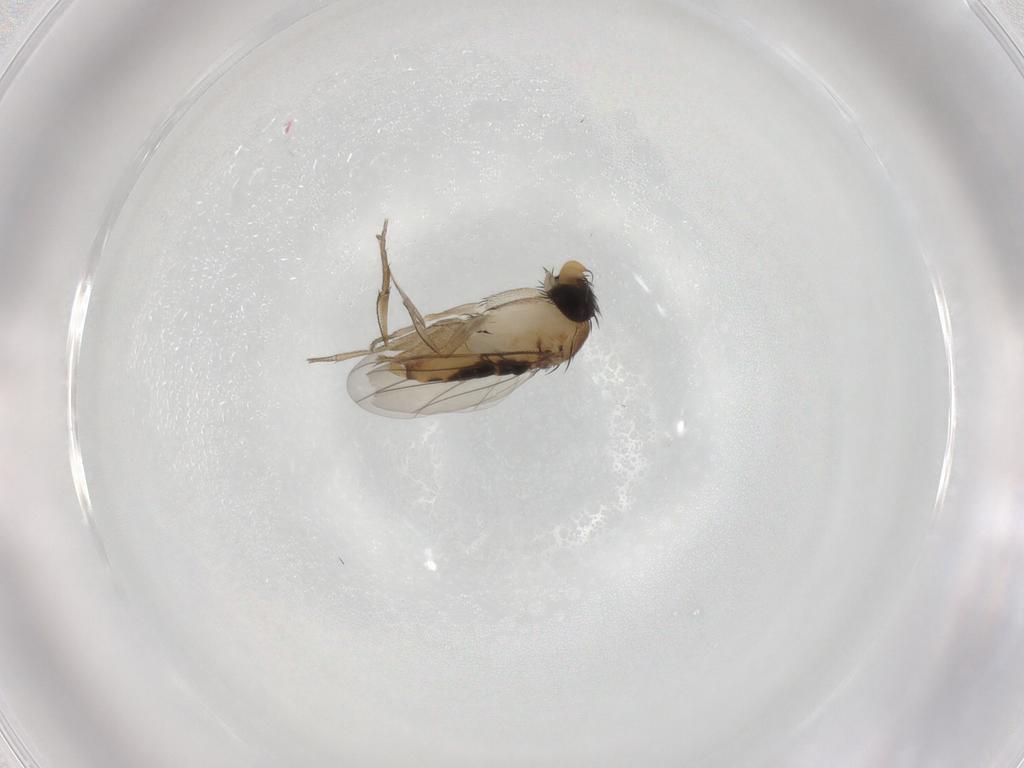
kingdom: Animalia
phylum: Arthropoda
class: Insecta
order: Diptera
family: Phoridae
